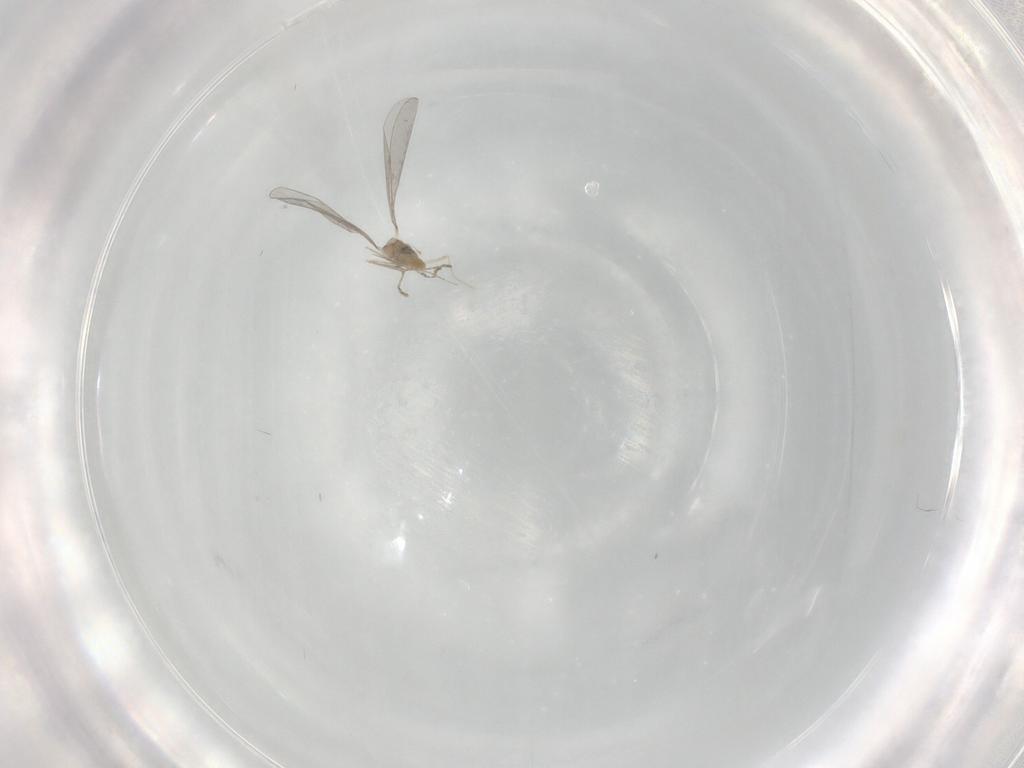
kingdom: Animalia
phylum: Arthropoda
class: Insecta
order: Diptera
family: Cecidomyiidae
